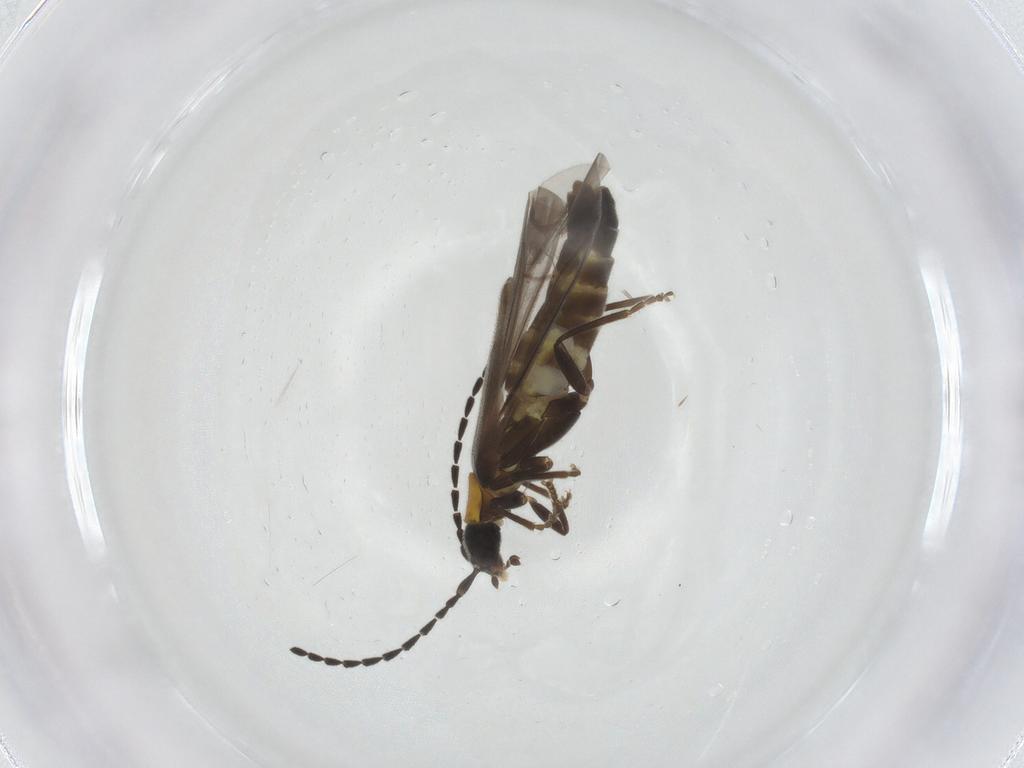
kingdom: Animalia
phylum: Arthropoda
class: Insecta
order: Coleoptera
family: Cantharidae
